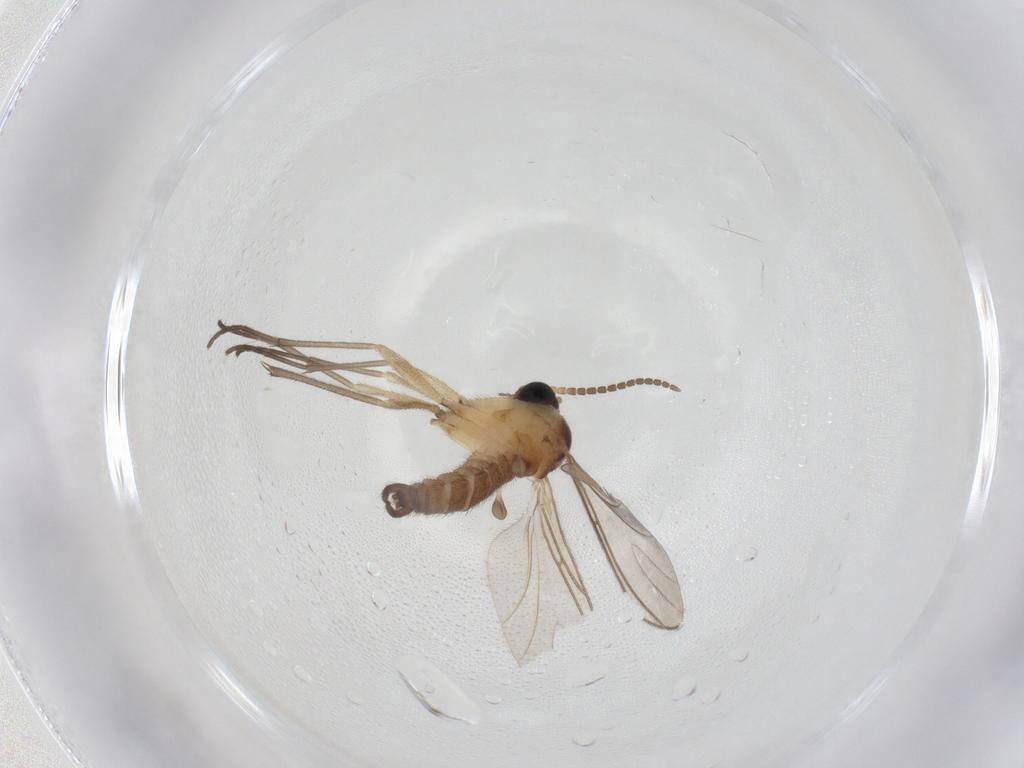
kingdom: Animalia
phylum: Arthropoda
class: Insecta
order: Diptera
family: Sciaridae
